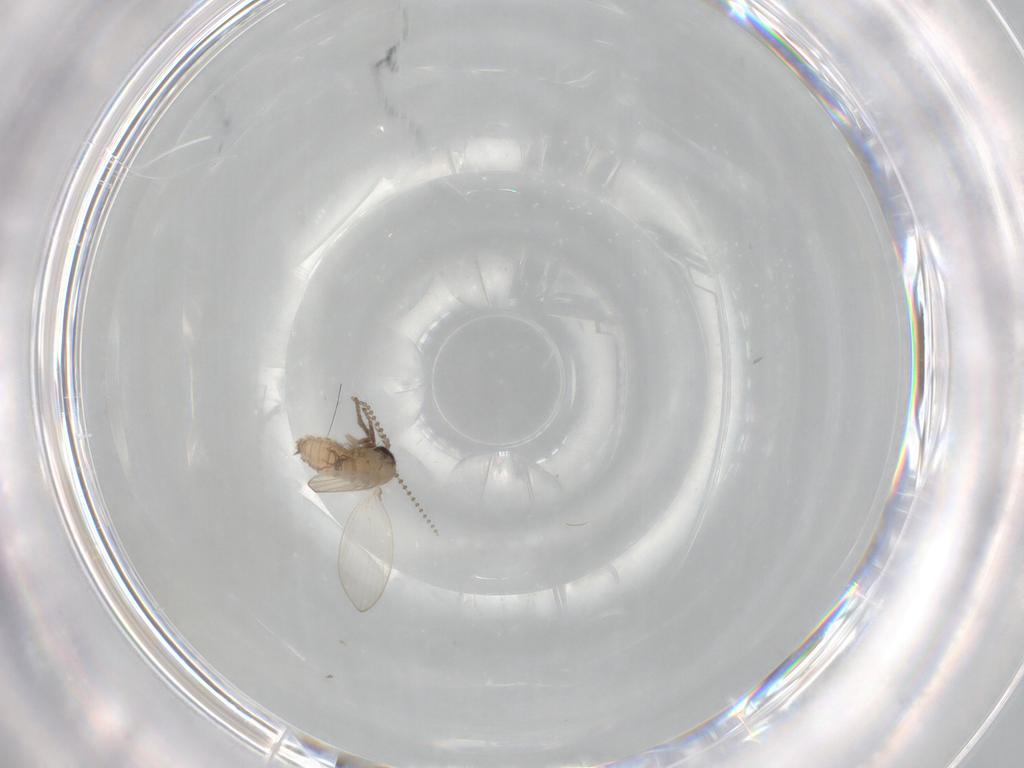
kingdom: Animalia
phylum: Arthropoda
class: Insecta
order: Diptera
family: Psychodidae
